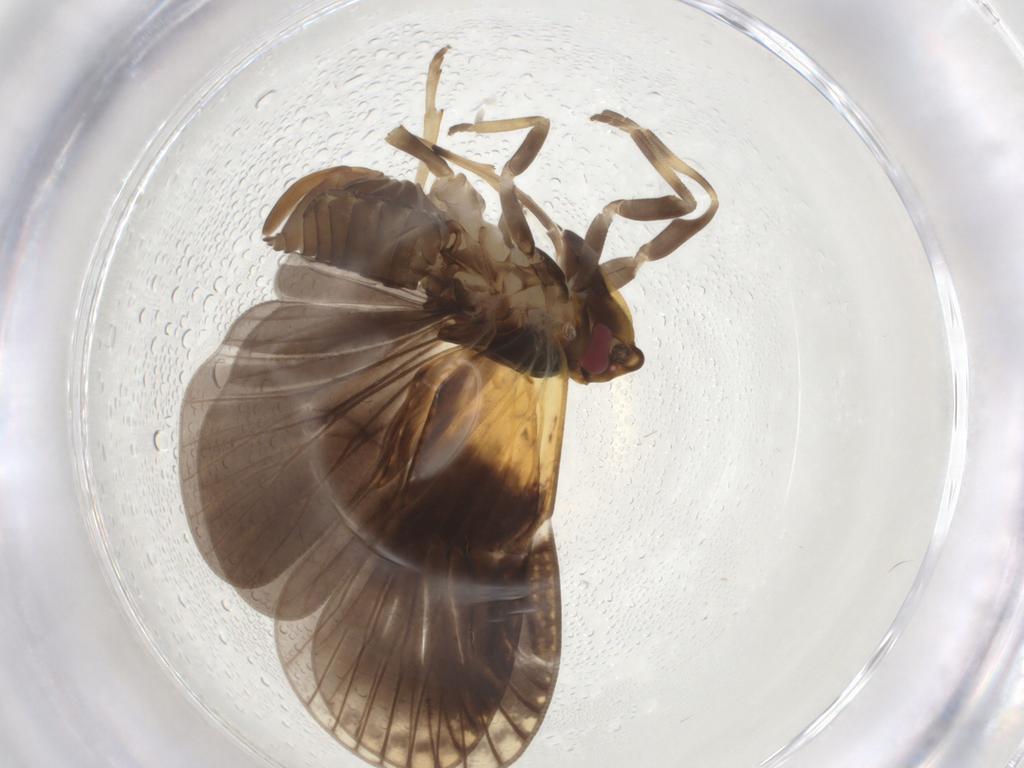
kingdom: Animalia
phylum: Arthropoda
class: Insecta
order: Hemiptera
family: Cixiidae
